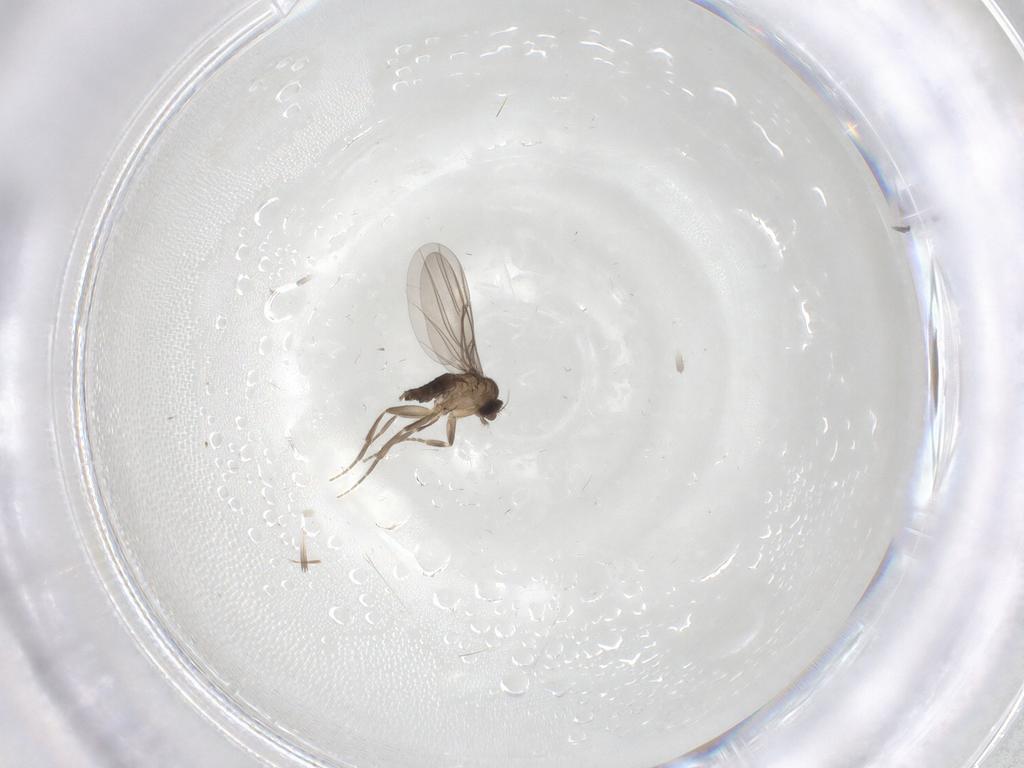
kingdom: Animalia
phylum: Arthropoda
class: Insecta
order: Diptera
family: Phoridae
